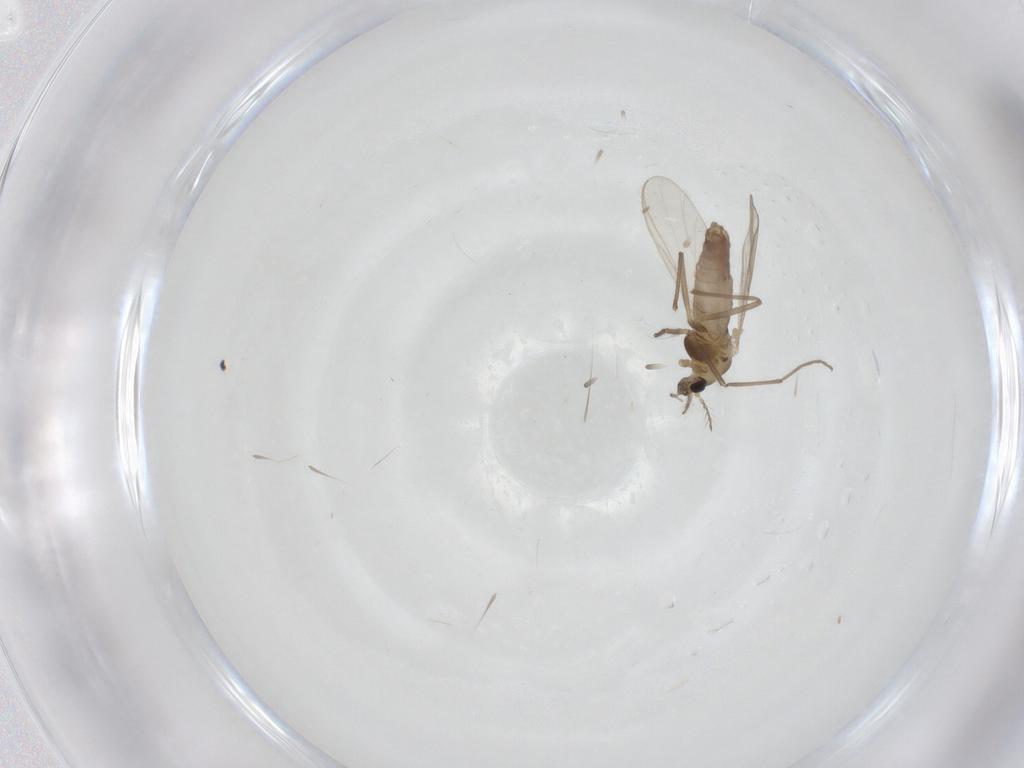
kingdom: Animalia
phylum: Arthropoda
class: Insecta
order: Diptera
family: Chironomidae
